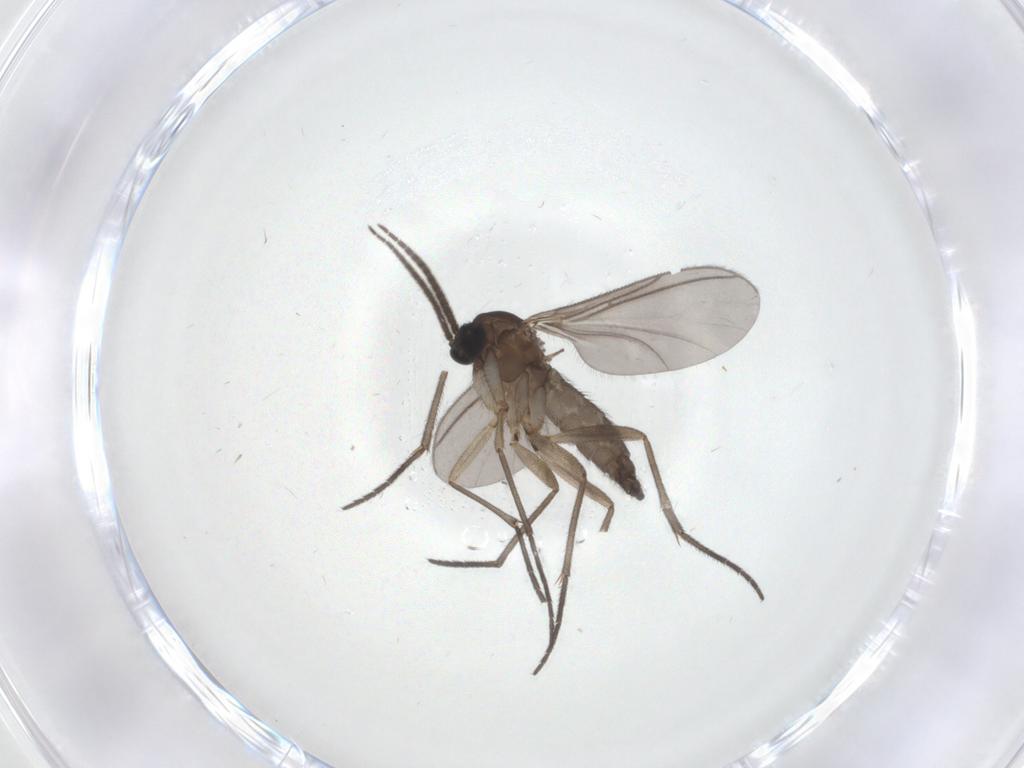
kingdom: Animalia
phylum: Arthropoda
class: Insecta
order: Diptera
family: Sciaridae
